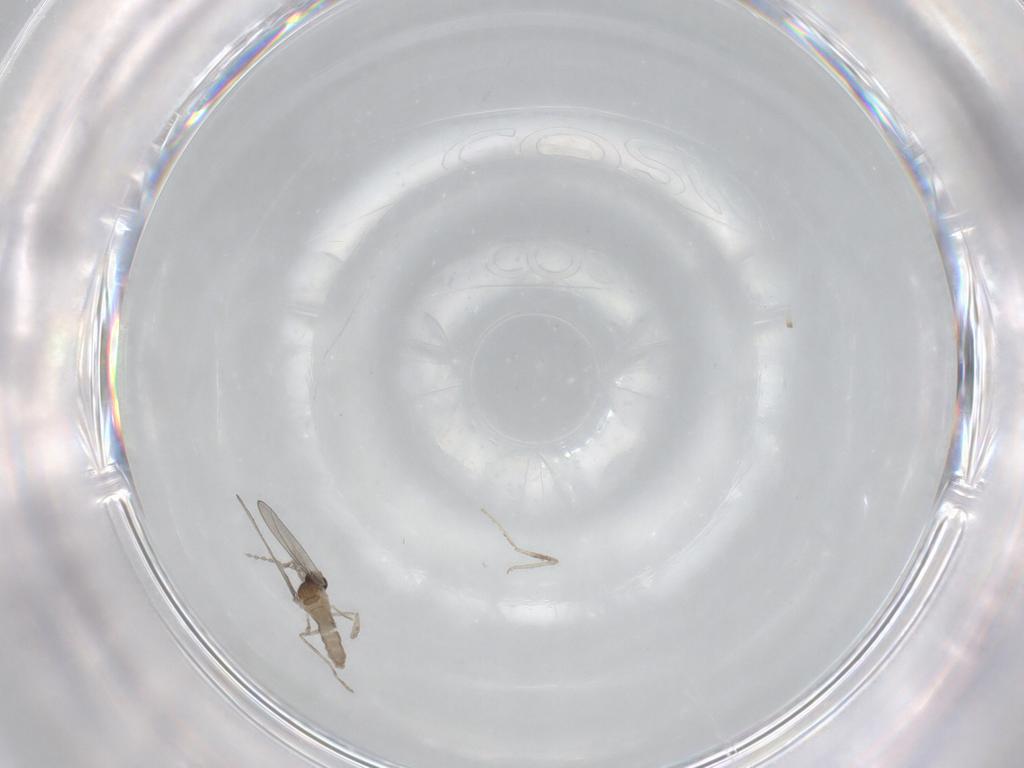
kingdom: Animalia
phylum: Arthropoda
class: Insecta
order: Diptera
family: Cecidomyiidae
